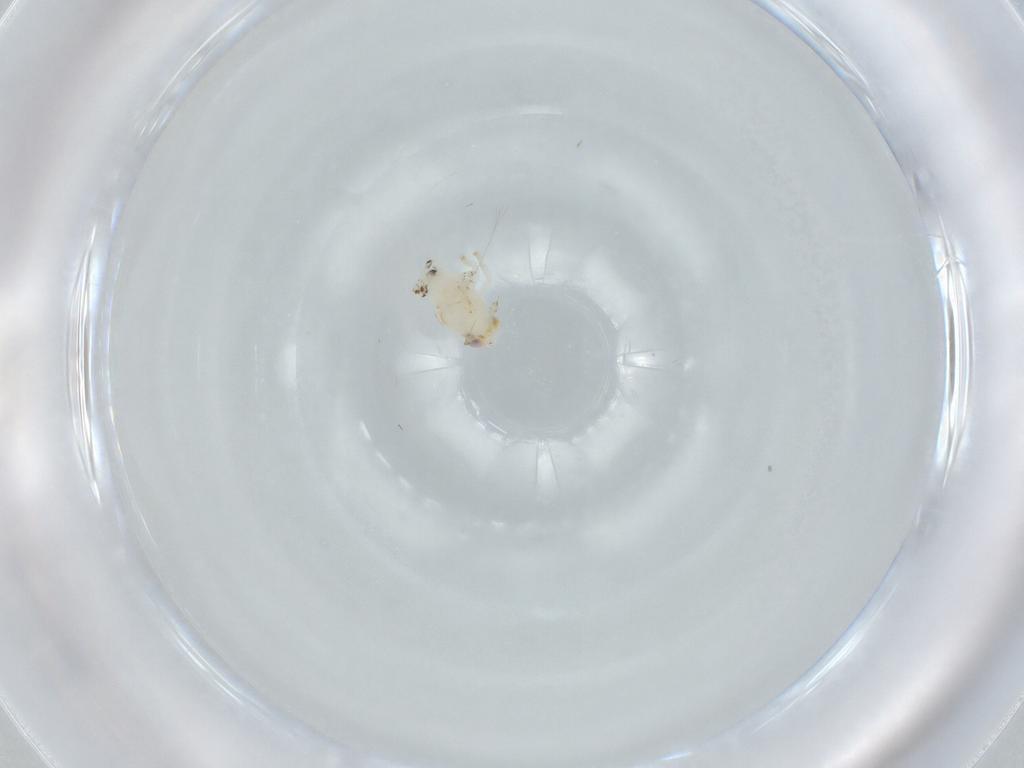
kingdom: Animalia
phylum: Arthropoda
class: Insecta
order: Hemiptera
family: Nogodinidae
